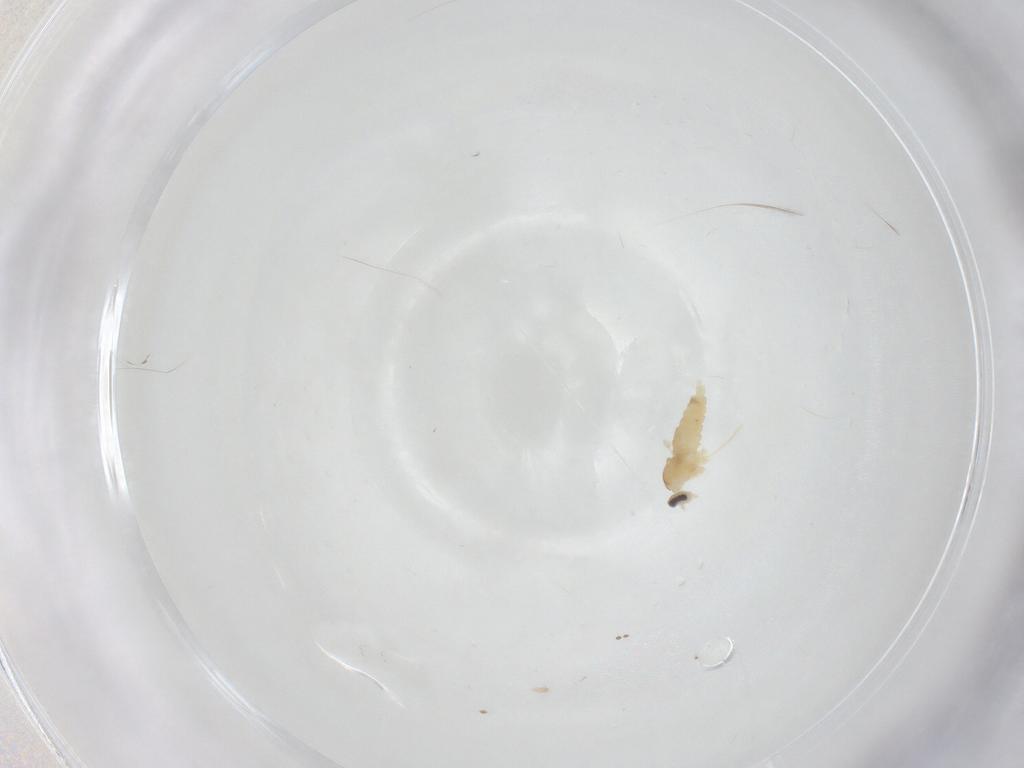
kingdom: Animalia
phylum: Arthropoda
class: Insecta
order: Diptera
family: Cecidomyiidae
